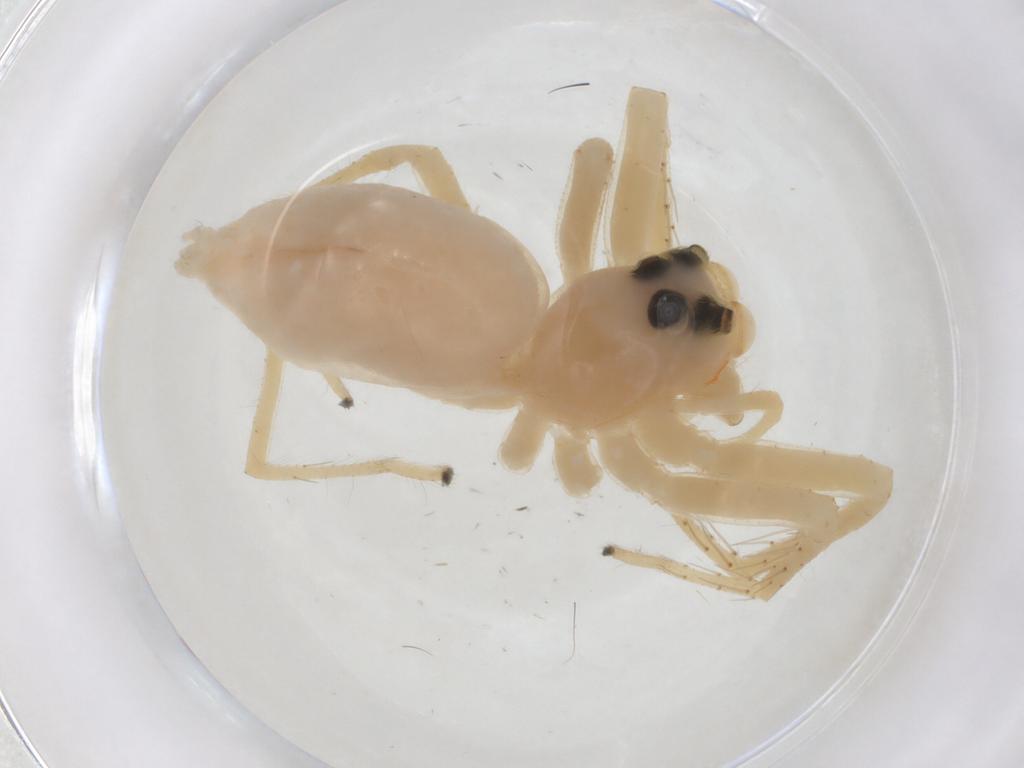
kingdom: Animalia
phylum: Arthropoda
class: Arachnida
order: Araneae
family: Salticidae
